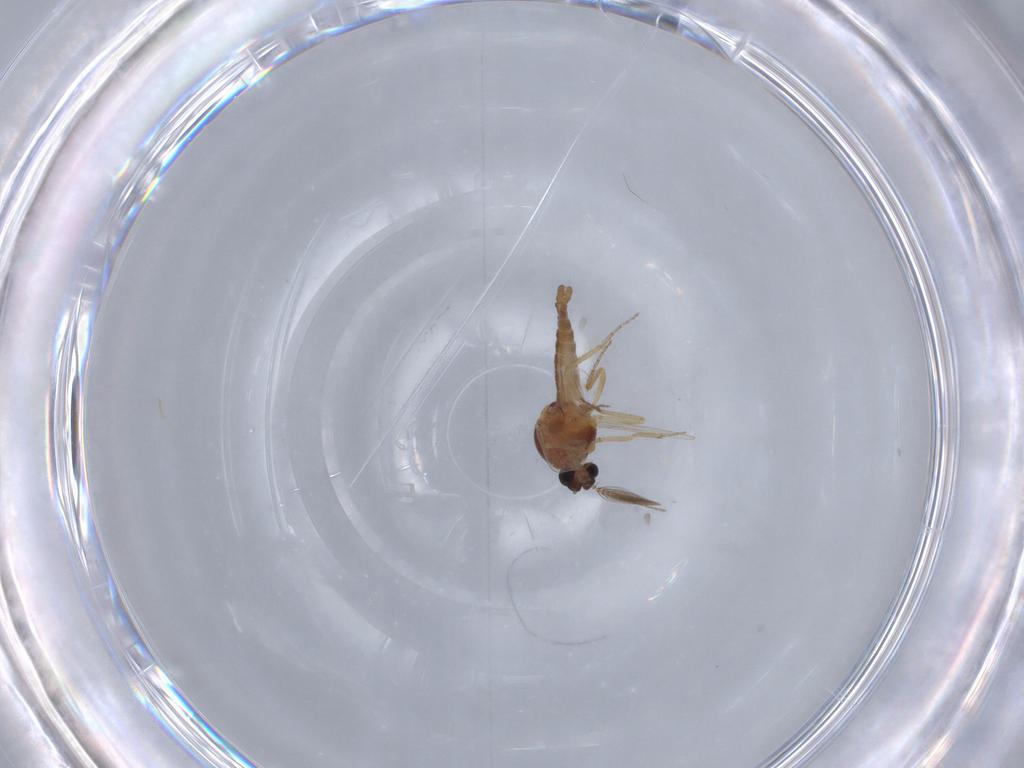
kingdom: Animalia
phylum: Arthropoda
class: Insecta
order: Diptera
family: Ceratopogonidae
